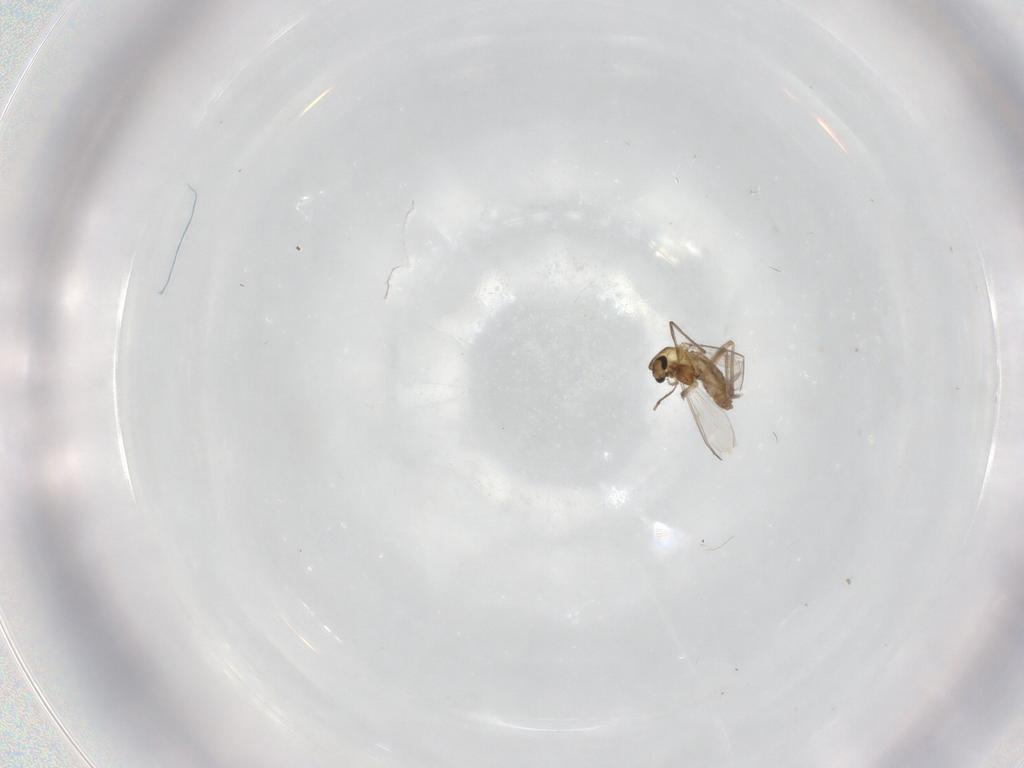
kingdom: Animalia
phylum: Arthropoda
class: Insecta
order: Diptera
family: Chironomidae
